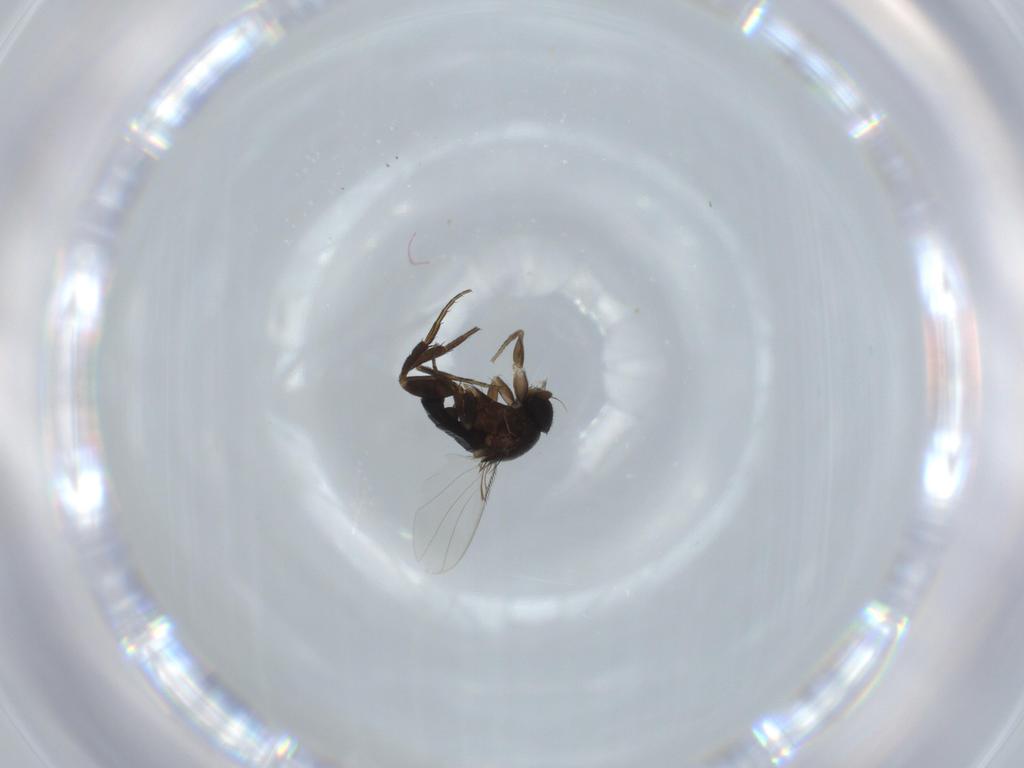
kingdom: Animalia
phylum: Arthropoda
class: Insecta
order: Diptera
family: Phoridae
